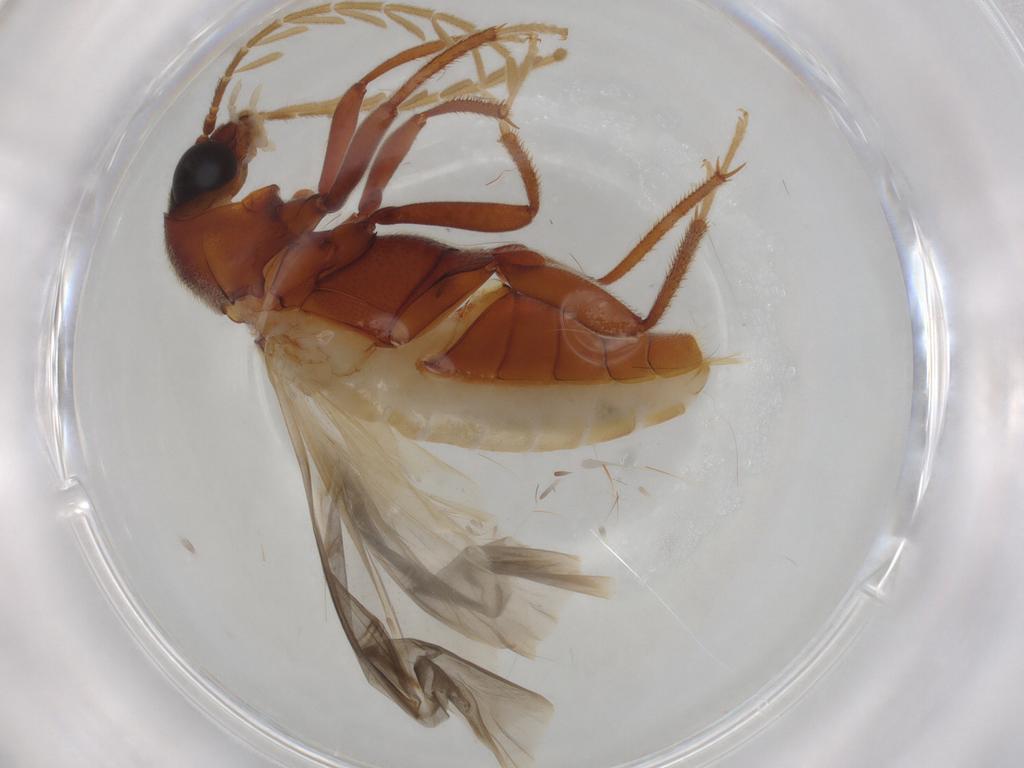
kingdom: Animalia
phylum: Arthropoda
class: Insecta
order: Coleoptera
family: Ptilodactylidae
